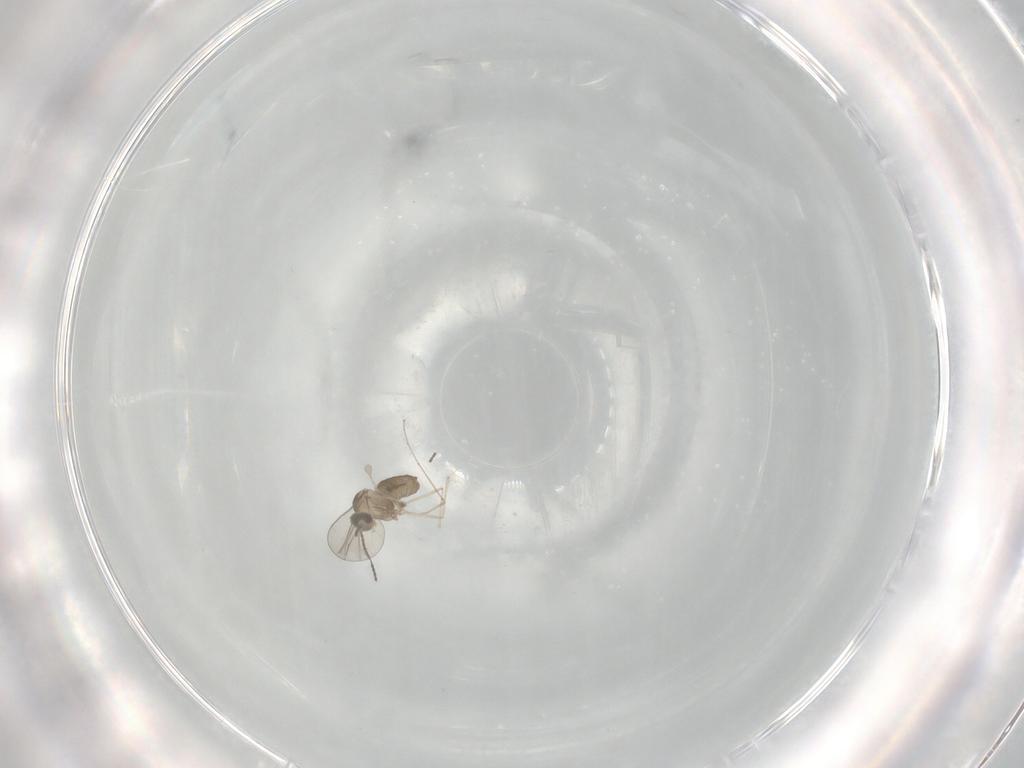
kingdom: Animalia
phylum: Arthropoda
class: Insecta
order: Diptera
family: Cecidomyiidae
